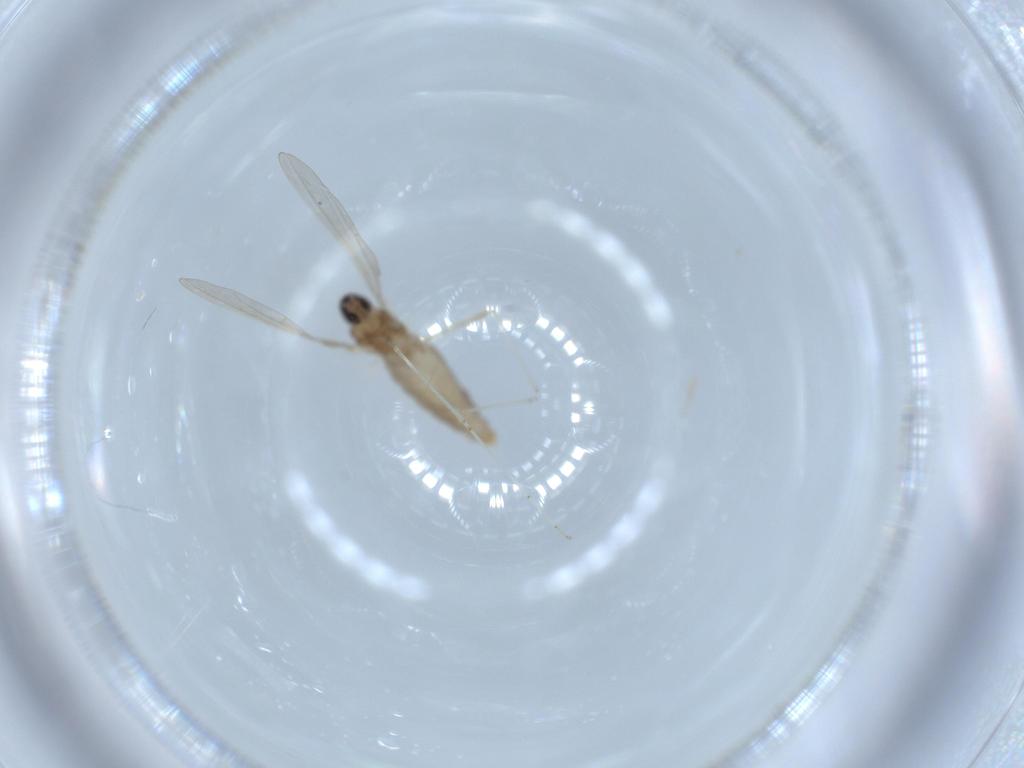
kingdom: Animalia
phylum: Arthropoda
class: Insecta
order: Diptera
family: Cecidomyiidae
